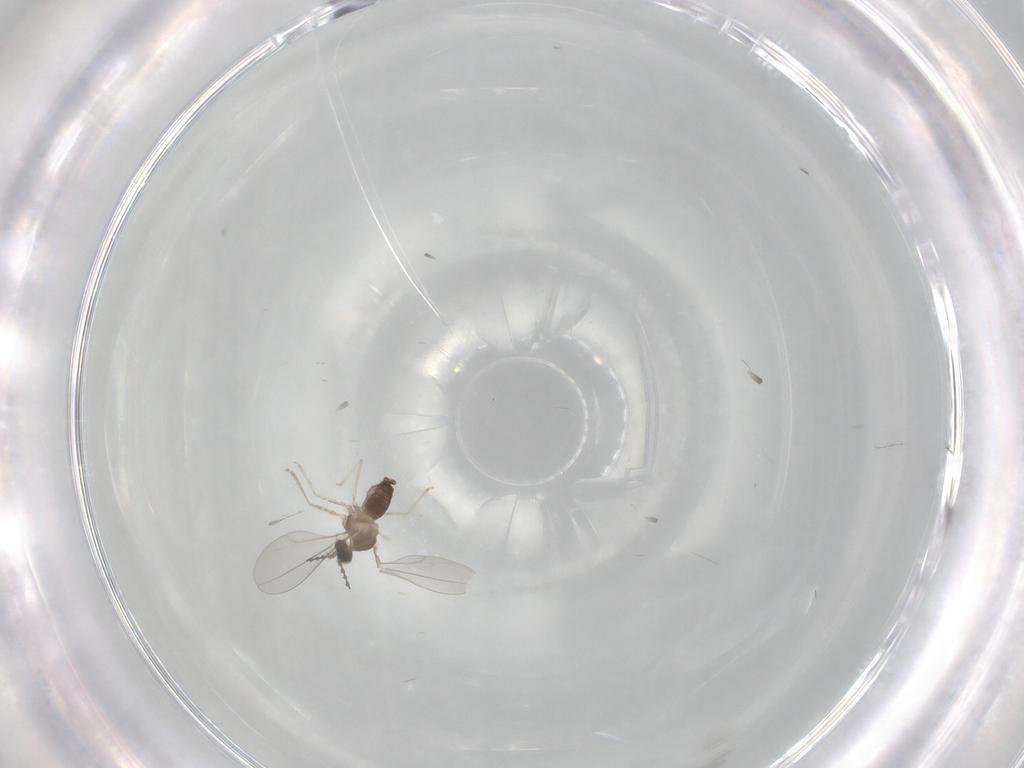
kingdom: Animalia
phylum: Arthropoda
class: Insecta
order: Diptera
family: Cecidomyiidae
